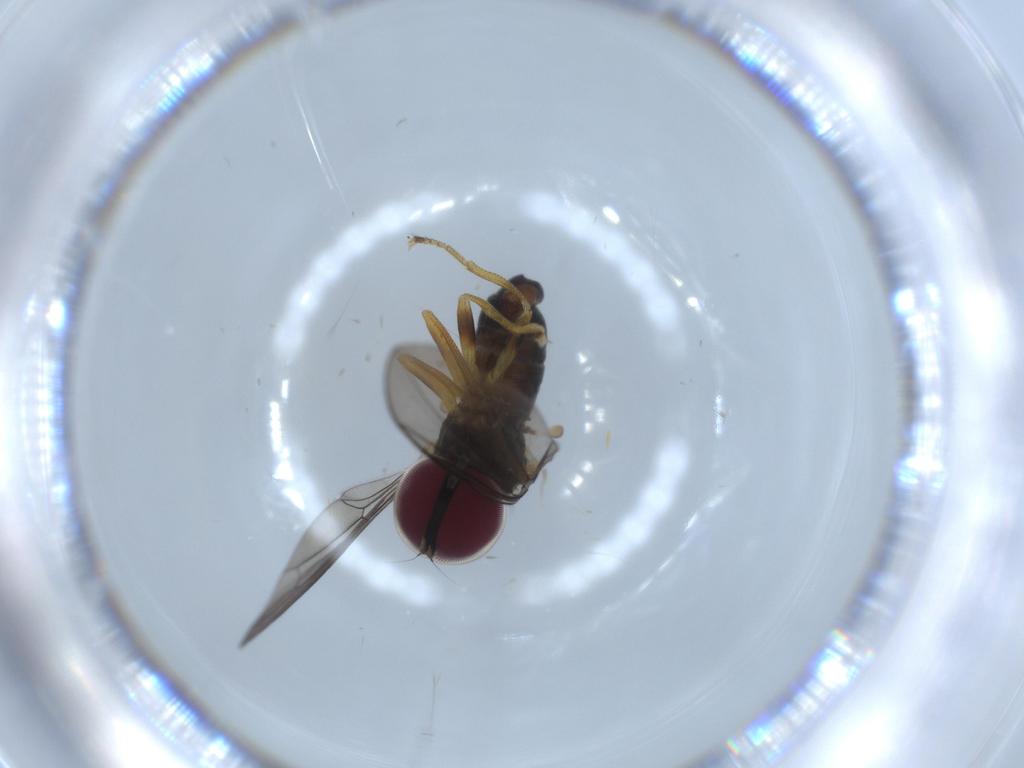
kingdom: Animalia
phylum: Arthropoda
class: Insecta
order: Diptera
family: Pipunculidae
